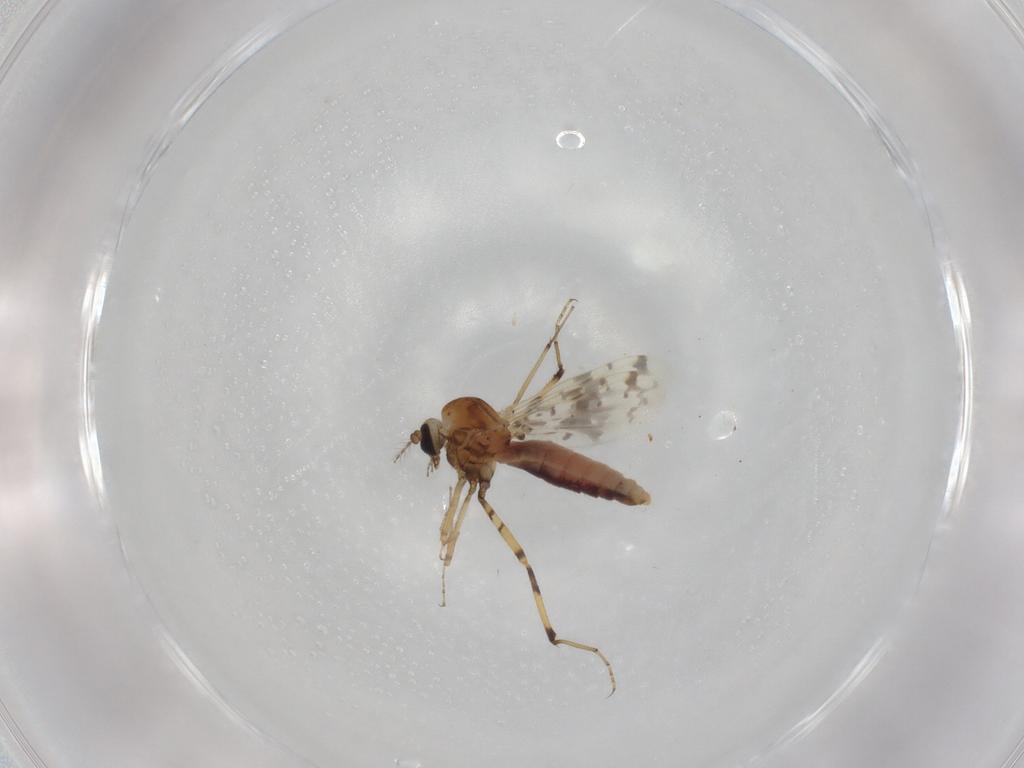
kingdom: Animalia
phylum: Arthropoda
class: Insecta
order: Diptera
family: Ceratopogonidae
